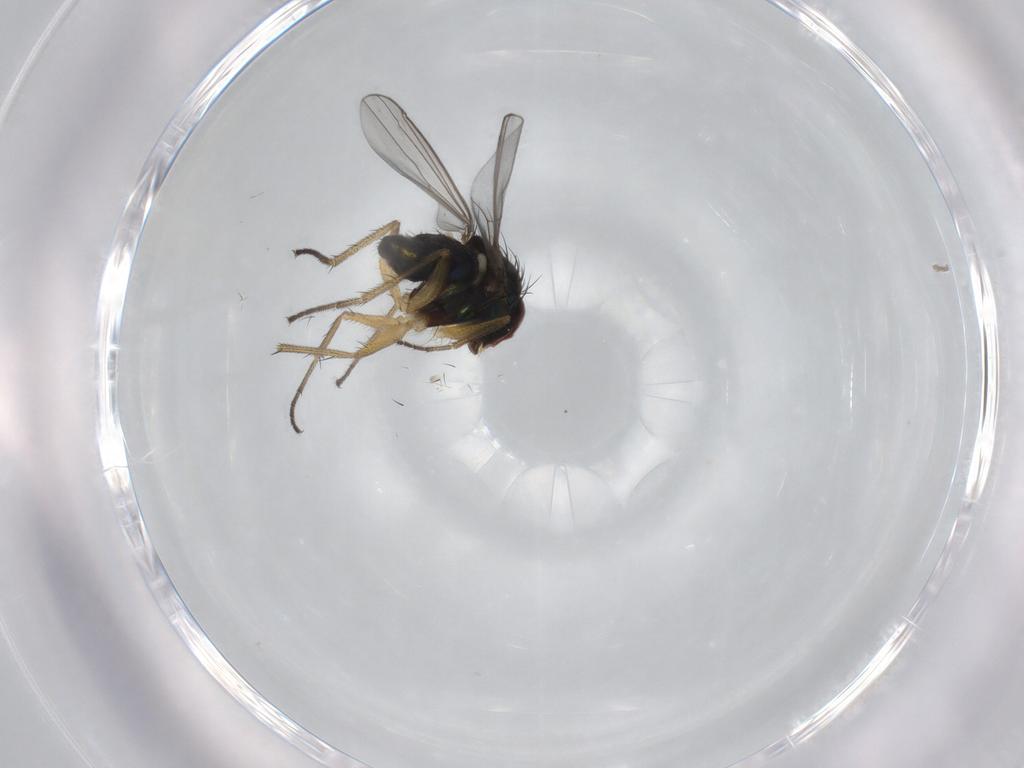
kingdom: Animalia
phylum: Arthropoda
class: Insecta
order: Diptera
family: Dolichopodidae
